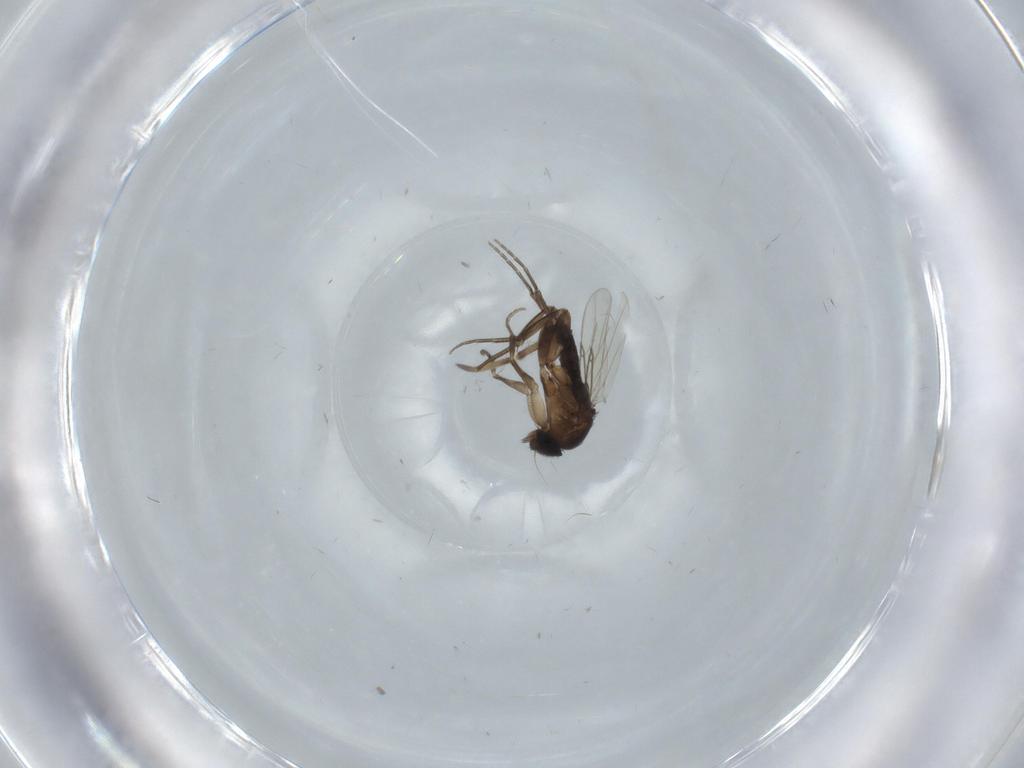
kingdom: Animalia
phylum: Arthropoda
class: Insecta
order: Diptera
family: Phoridae
